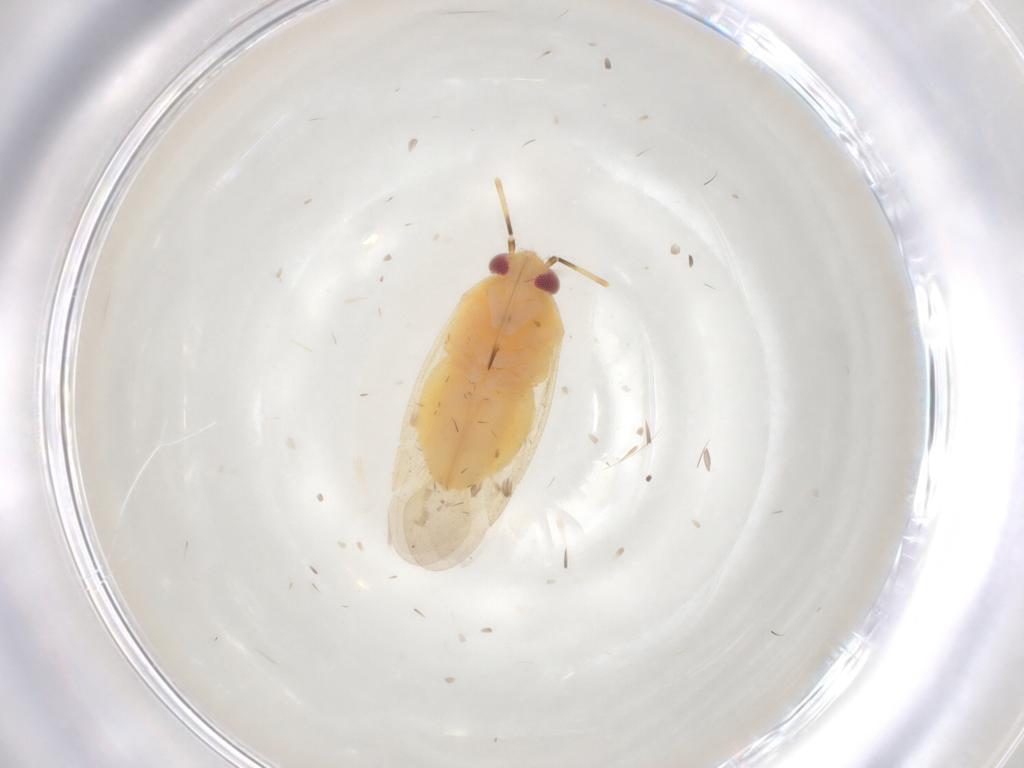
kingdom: Animalia
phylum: Arthropoda
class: Insecta
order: Hemiptera
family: Miridae
